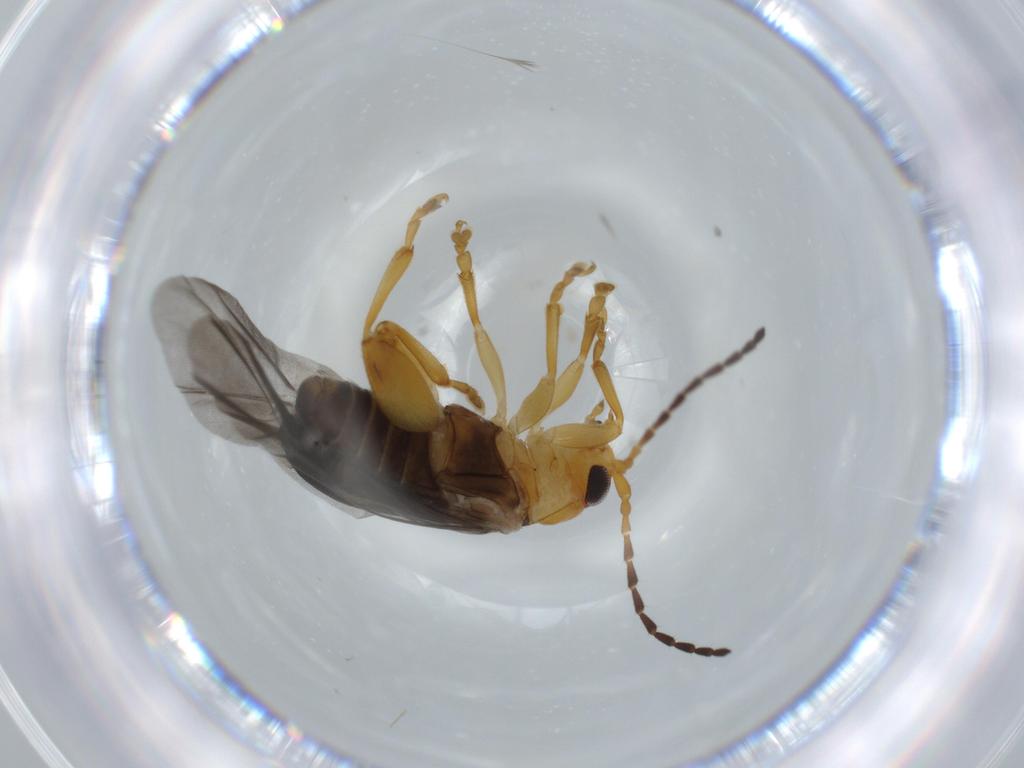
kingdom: Animalia
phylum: Arthropoda
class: Insecta
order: Coleoptera
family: Chrysomelidae
